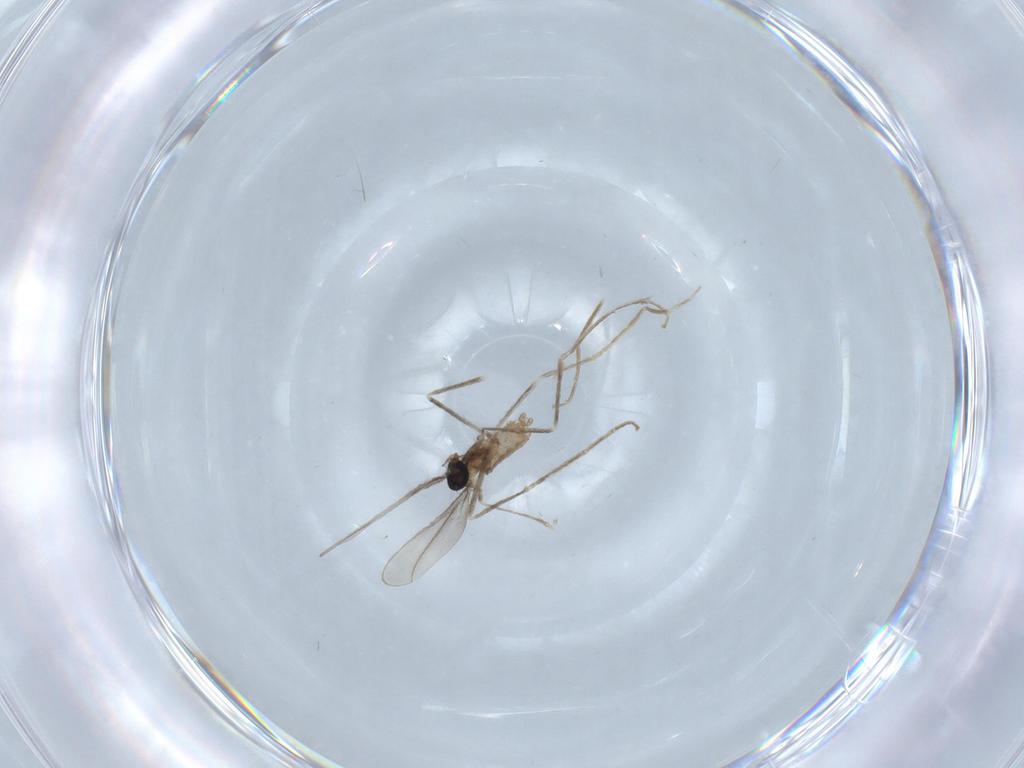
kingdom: Animalia
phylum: Arthropoda
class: Insecta
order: Diptera
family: Cecidomyiidae
